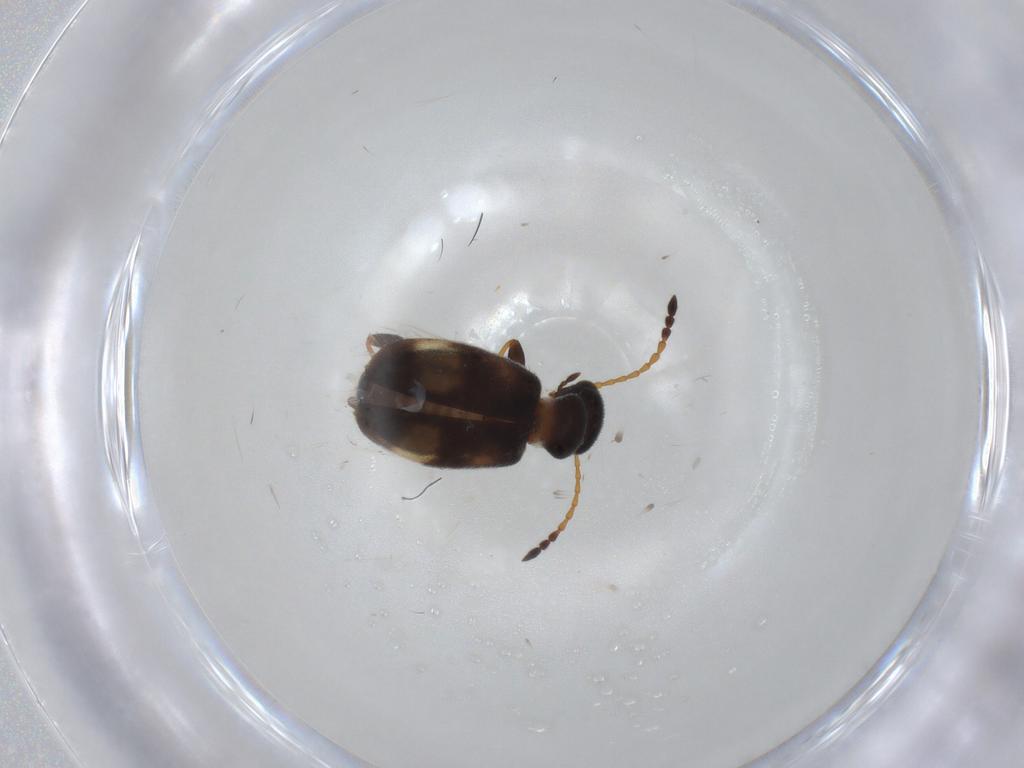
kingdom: Animalia
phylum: Arthropoda
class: Insecta
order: Coleoptera
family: Anthicidae
